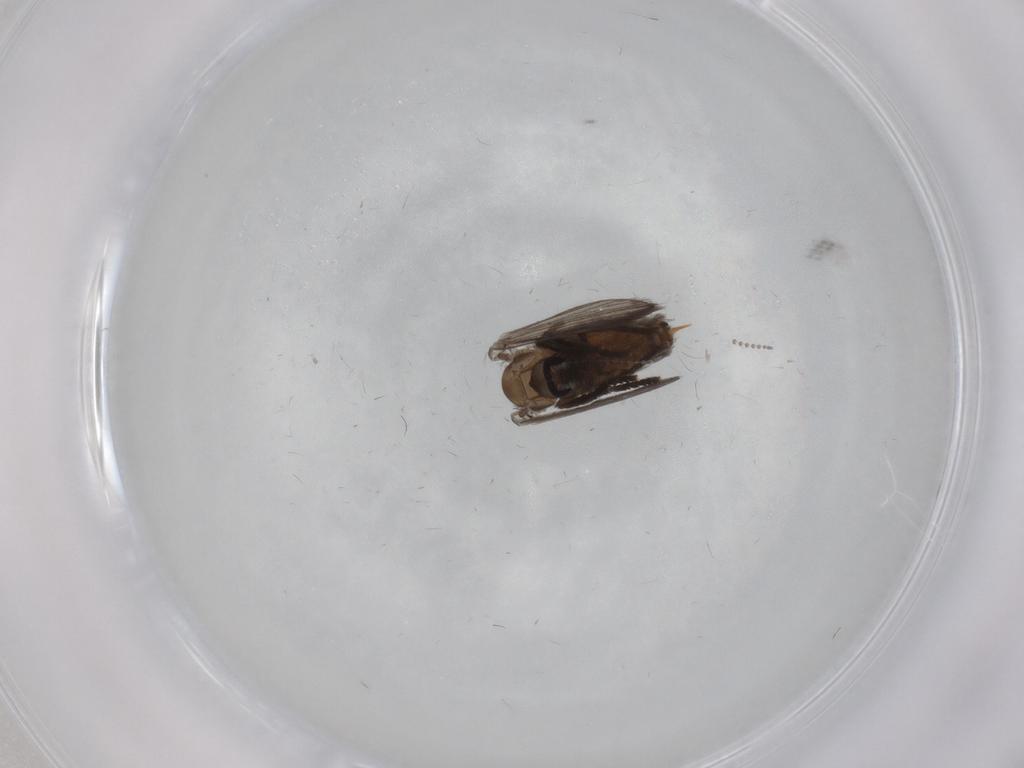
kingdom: Animalia
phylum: Arthropoda
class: Insecta
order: Diptera
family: Psychodidae
